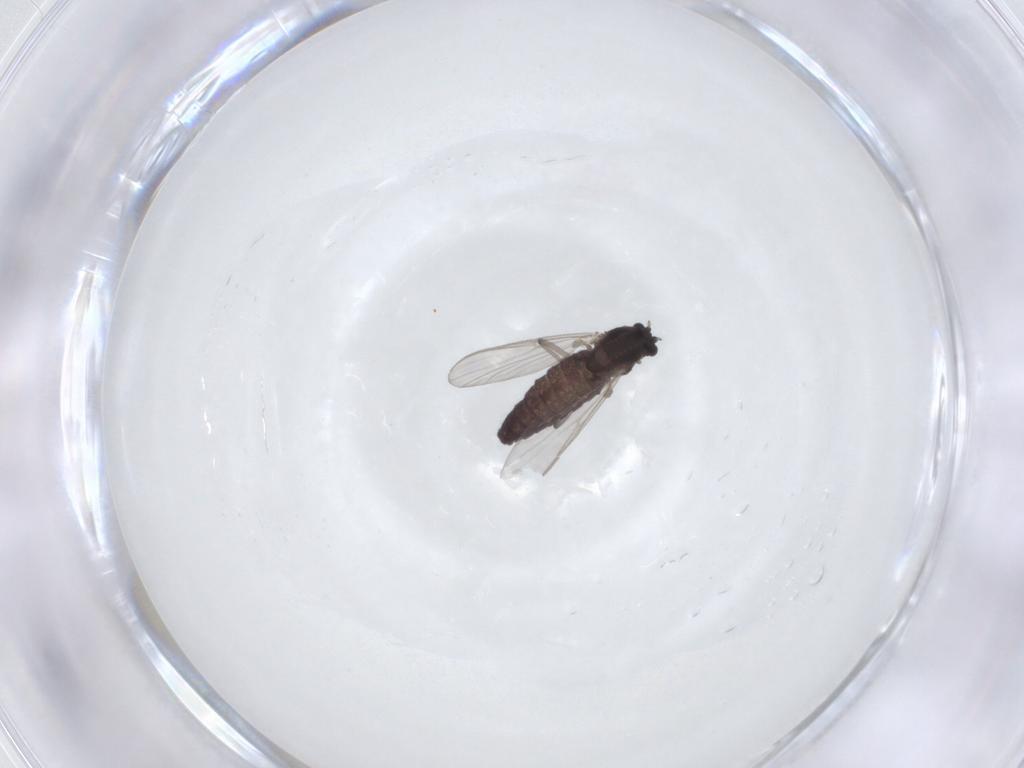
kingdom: Animalia
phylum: Arthropoda
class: Insecta
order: Diptera
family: Chironomidae
